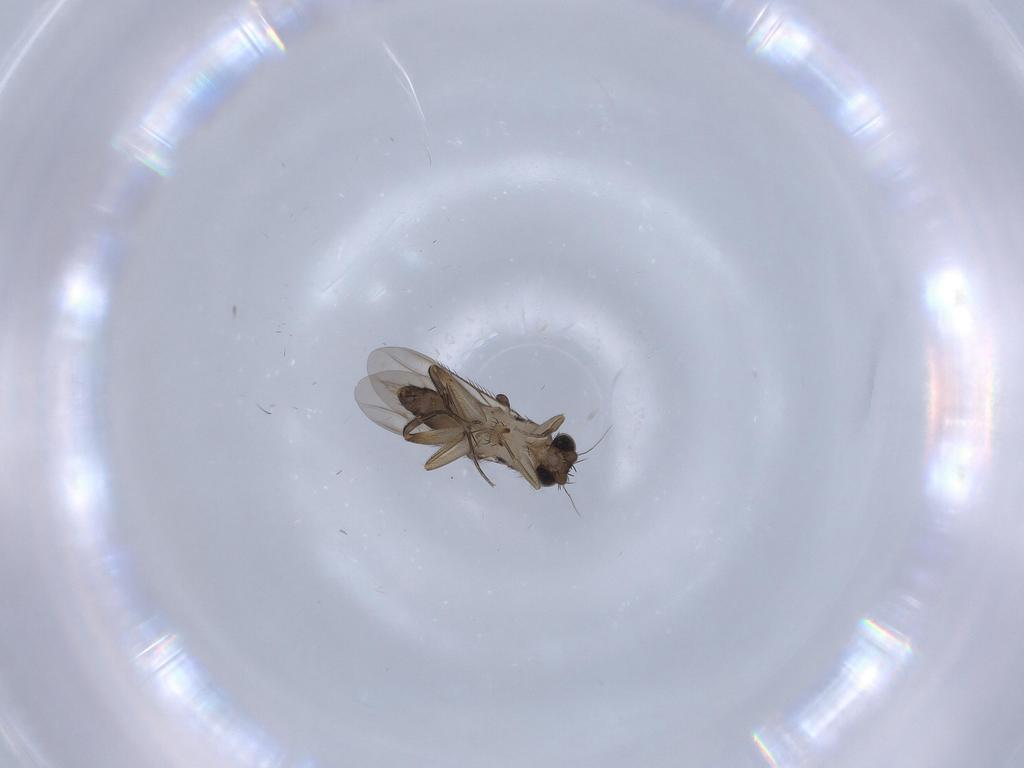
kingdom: Animalia
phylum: Arthropoda
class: Insecta
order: Diptera
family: Phoridae
